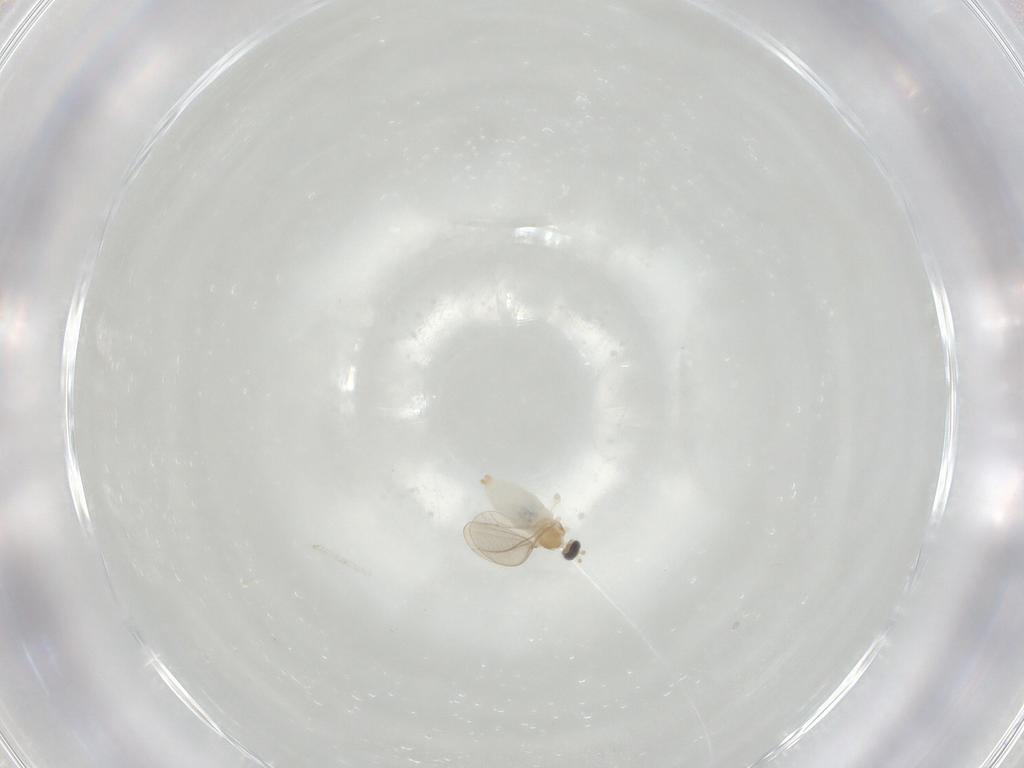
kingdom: Animalia
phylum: Arthropoda
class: Insecta
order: Diptera
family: Cecidomyiidae
